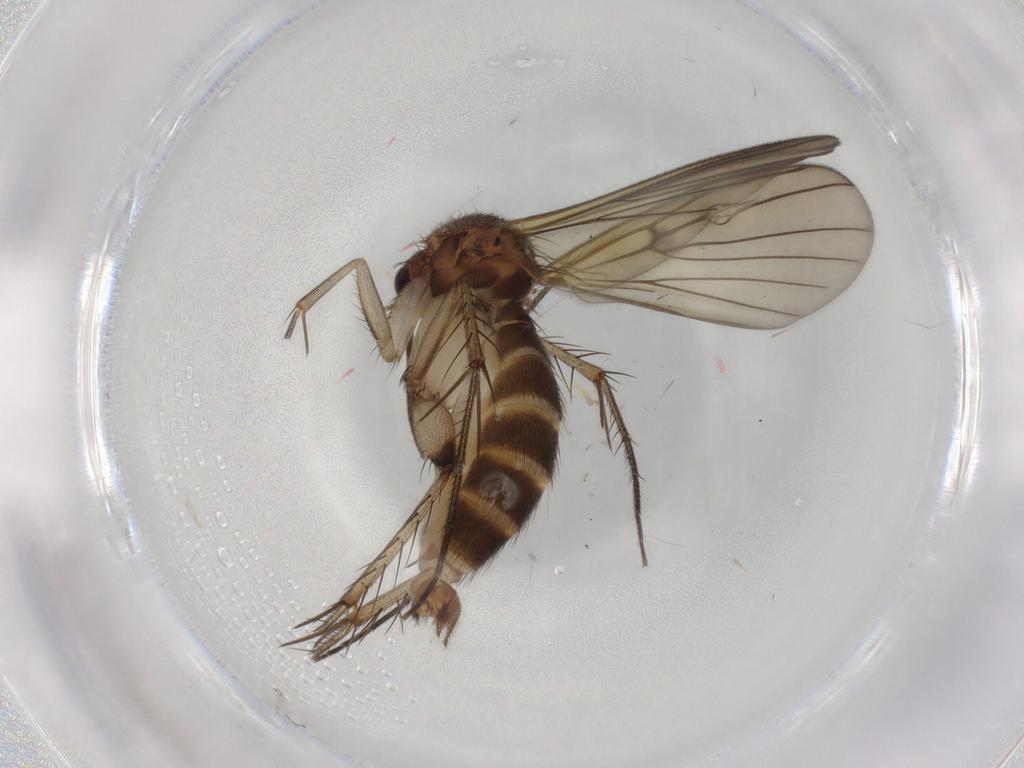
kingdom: Animalia
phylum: Arthropoda
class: Insecta
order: Diptera
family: Mycetophilidae
